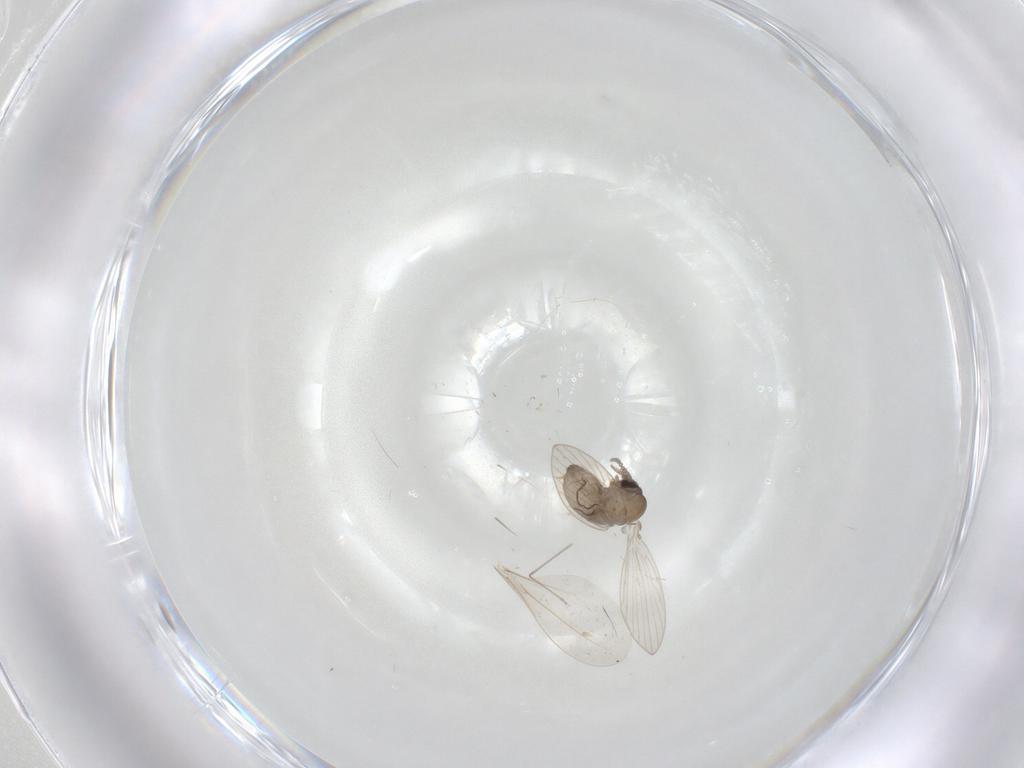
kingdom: Animalia
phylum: Arthropoda
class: Insecta
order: Diptera
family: Psychodidae
